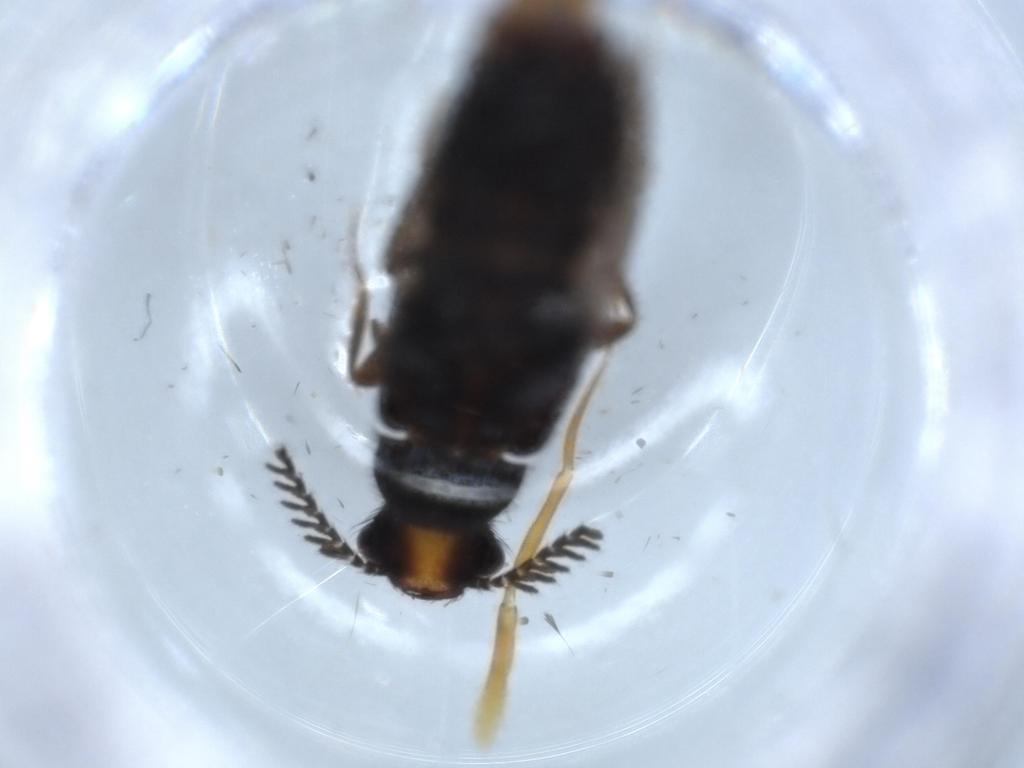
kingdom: Animalia
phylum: Arthropoda
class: Insecta
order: Coleoptera
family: Phengodidae
